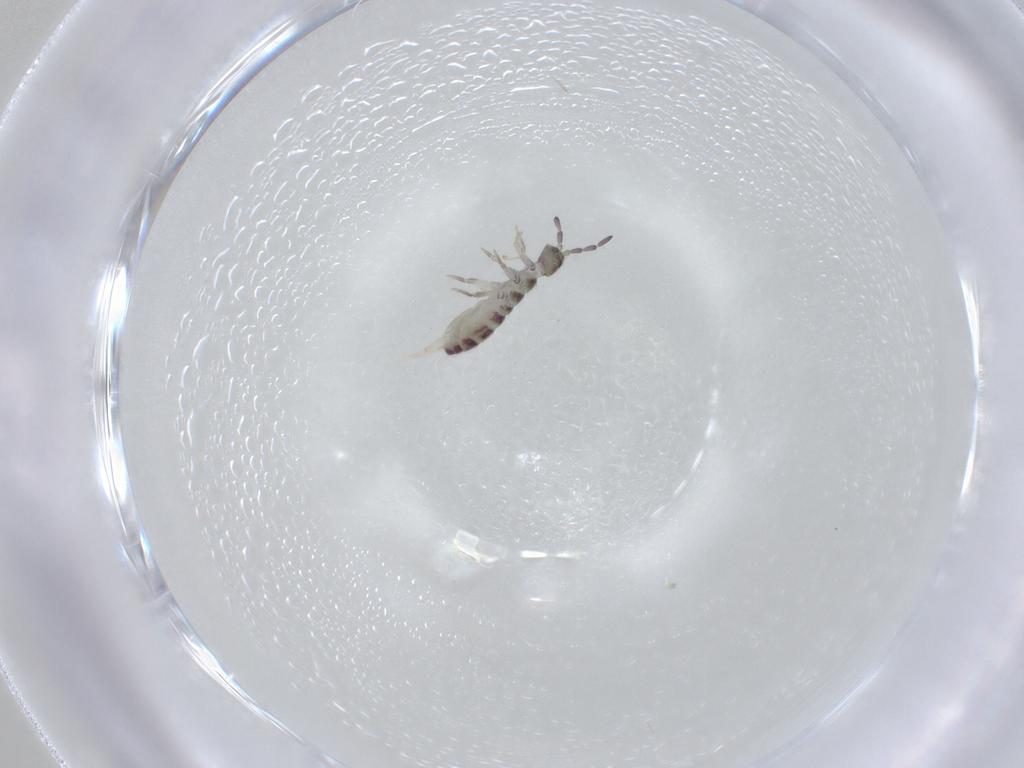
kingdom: Animalia
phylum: Arthropoda
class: Collembola
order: Entomobryomorpha
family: Isotomidae
